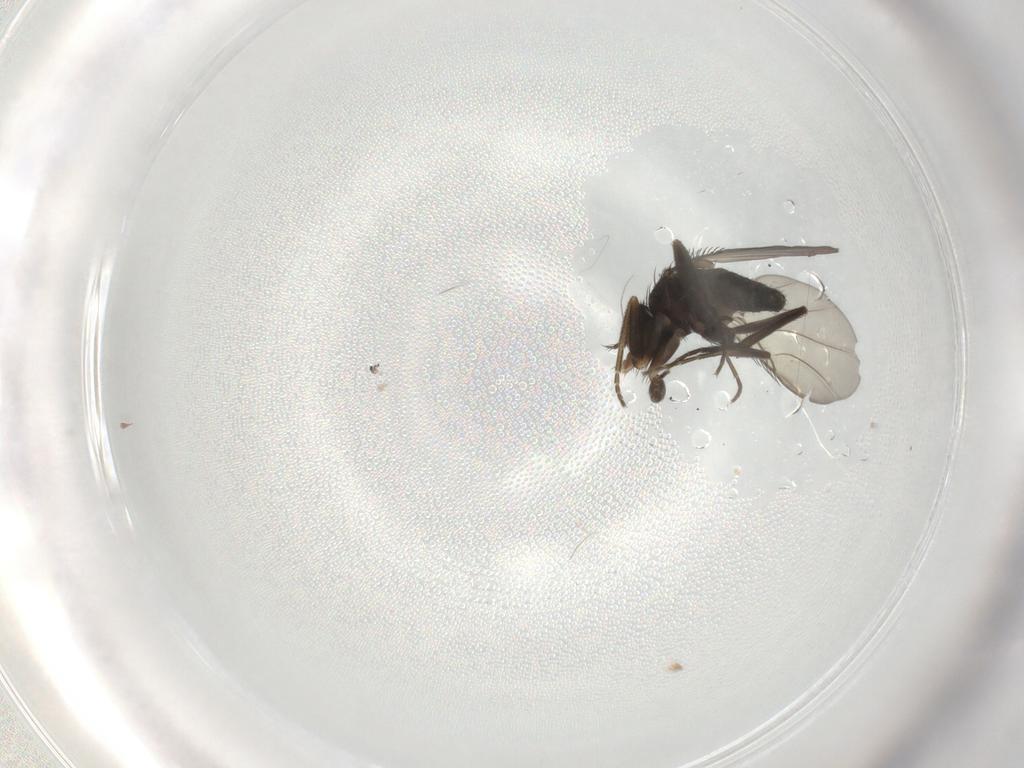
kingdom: Animalia
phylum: Arthropoda
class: Insecta
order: Diptera
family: Phoridae
